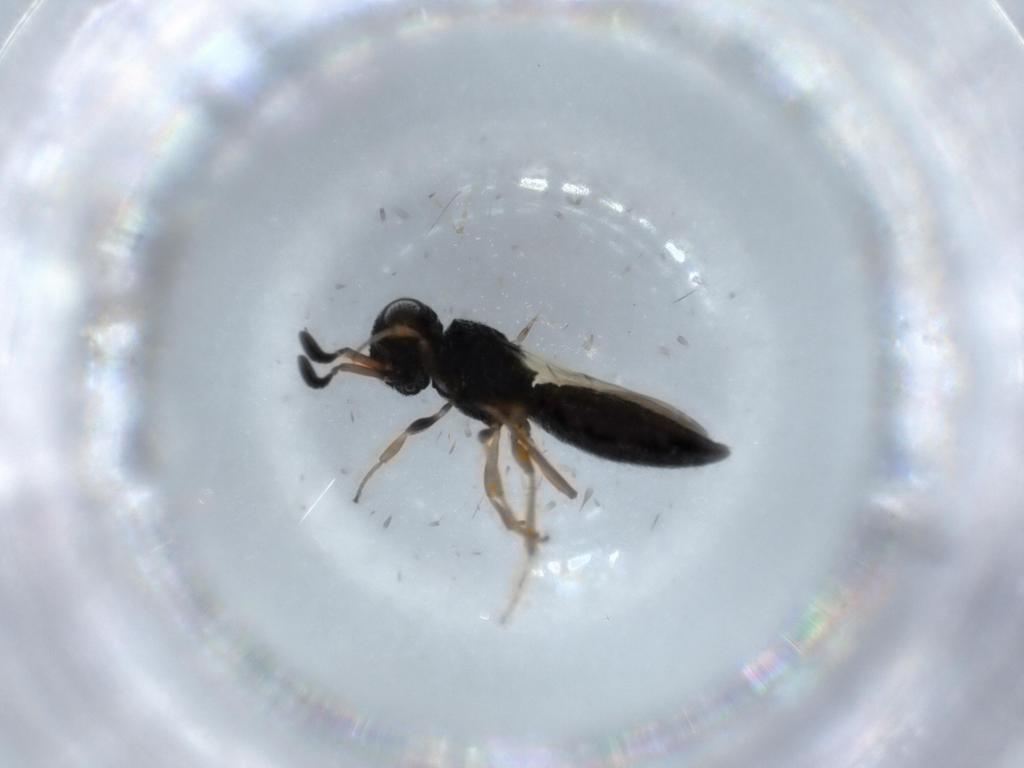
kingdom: Animalia
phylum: Arthropoda
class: Insecta
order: Hymenoptera
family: Scelionidae
